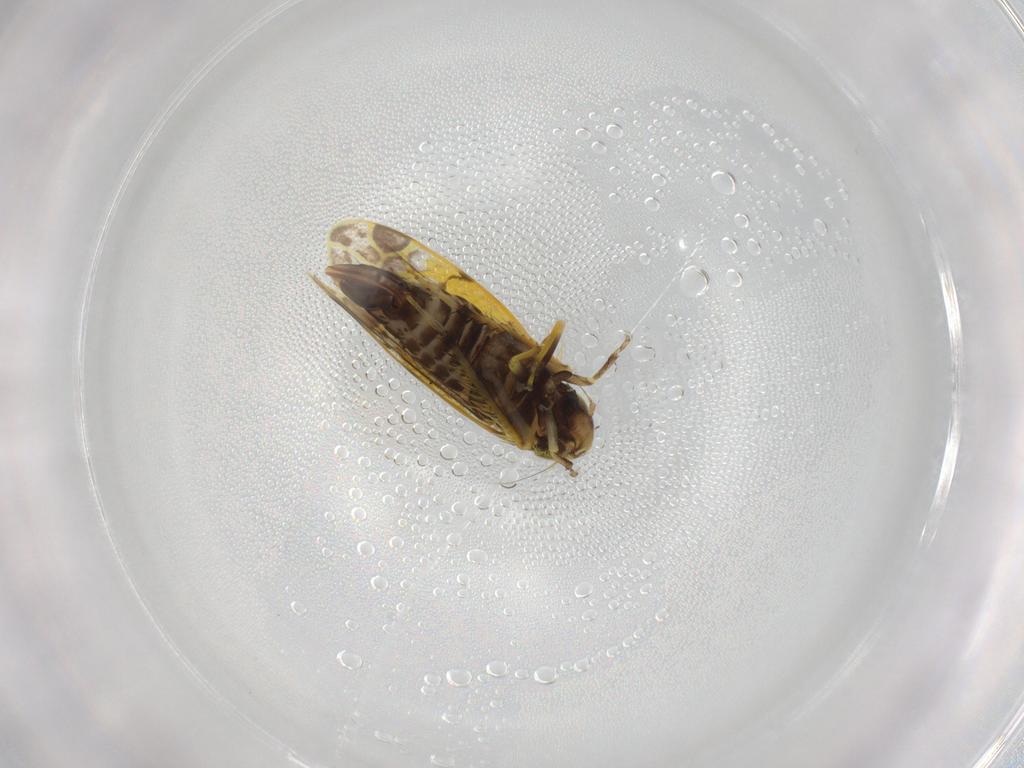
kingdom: Animalia
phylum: Arthropoda
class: Insecta
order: Hemiptera
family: Cicadellidae
